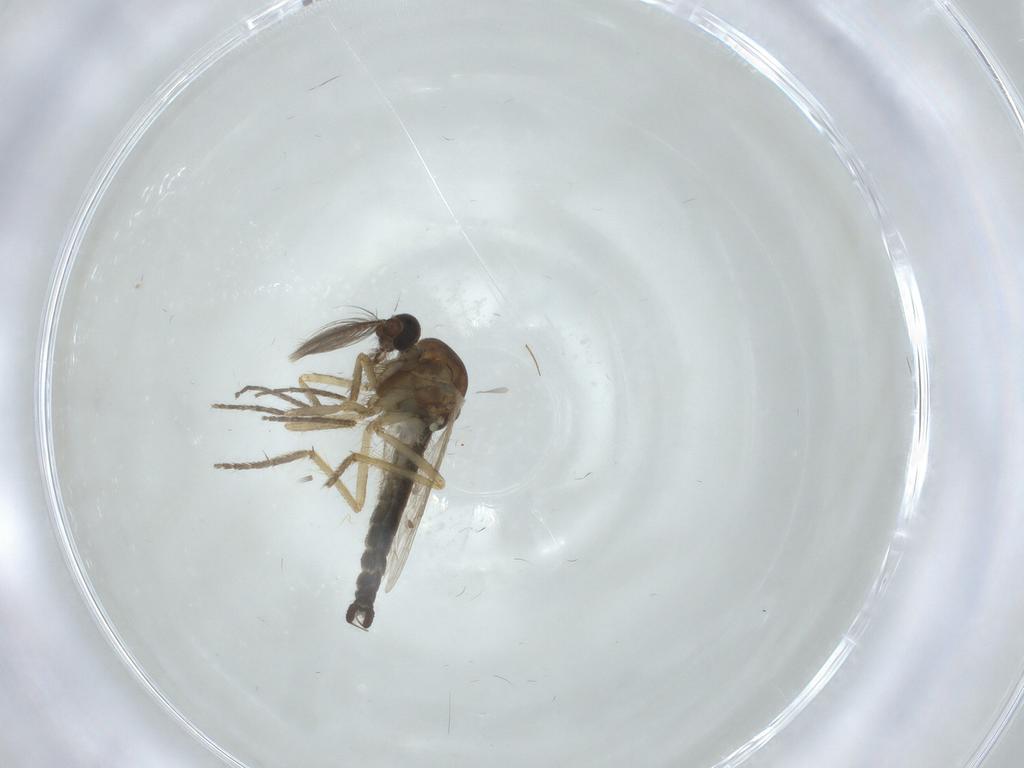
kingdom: Animalia
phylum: Arthropoda
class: Insecta
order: Diptera
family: Ceratopogonidae
